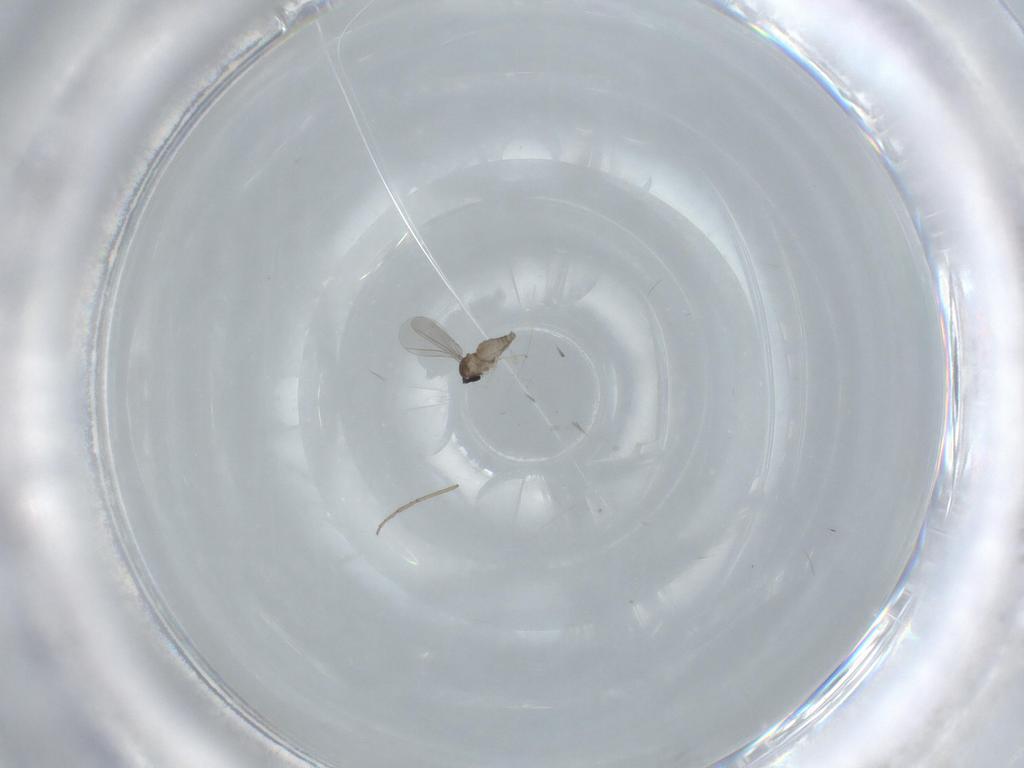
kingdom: Animalia
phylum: Arthropoda
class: Insecta
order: Diptera
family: Cecidomyiidae
